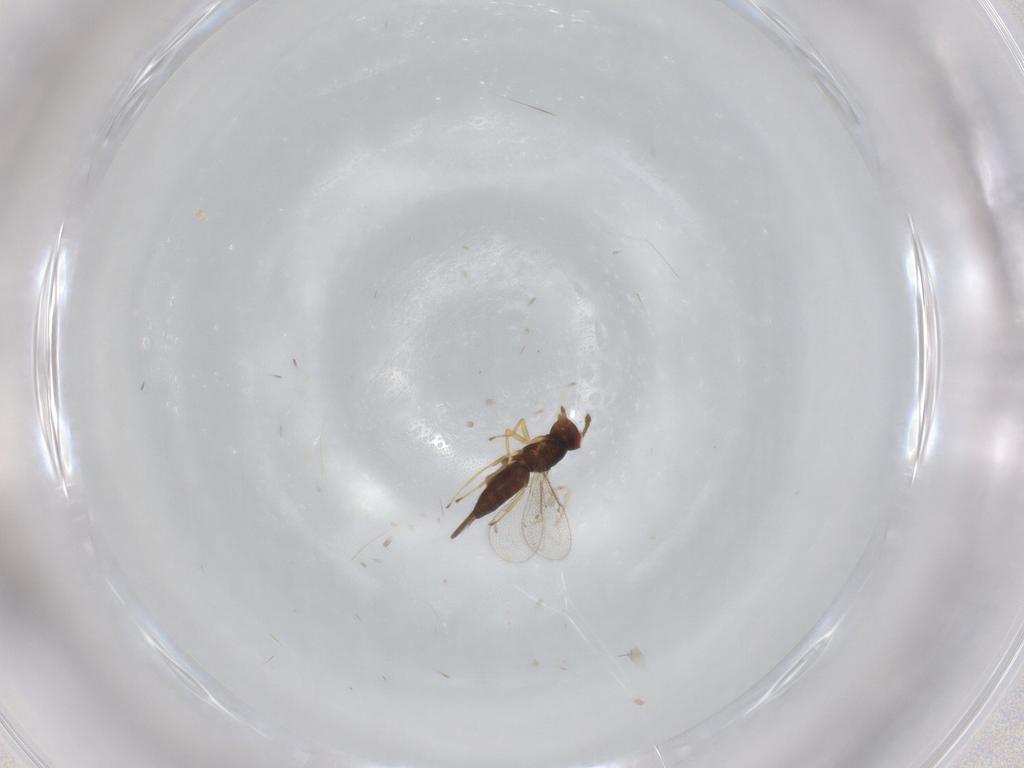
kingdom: Animalia
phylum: Arthropoda
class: Insecta
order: Hymenoptera
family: Eulophidae
